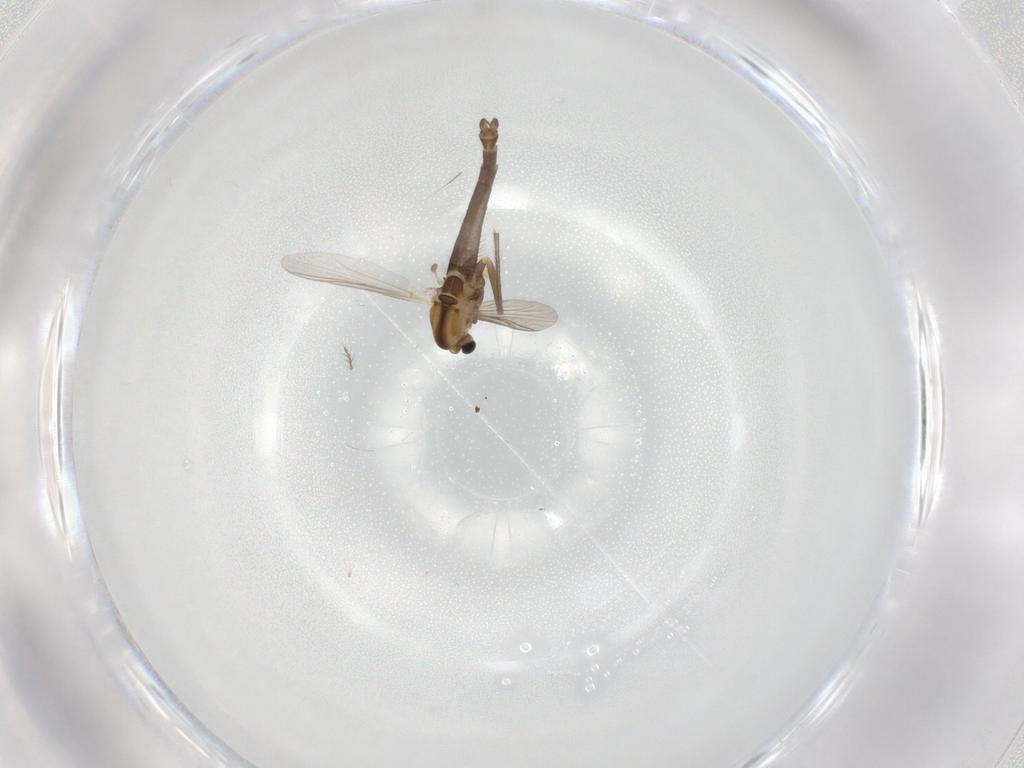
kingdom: Animalia
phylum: Arthropoda
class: Insecta
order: Diptera
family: Chironomidae
